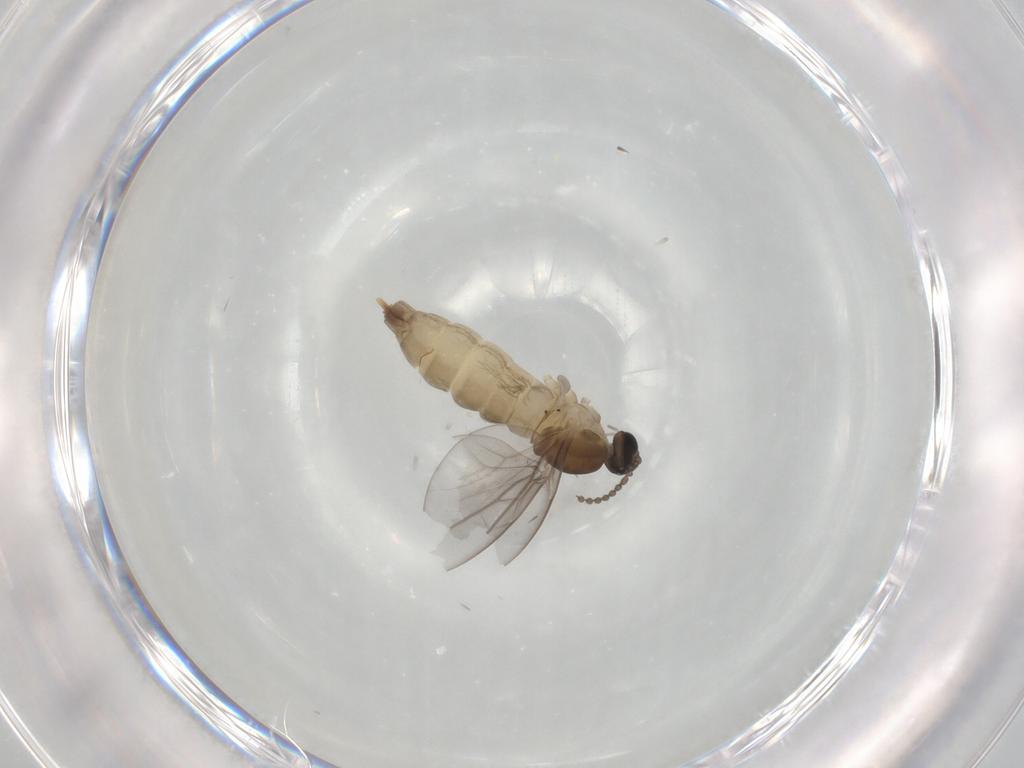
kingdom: Animalia
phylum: Arthropoda
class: Insecta
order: Diptera
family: Cecidomyiidae
